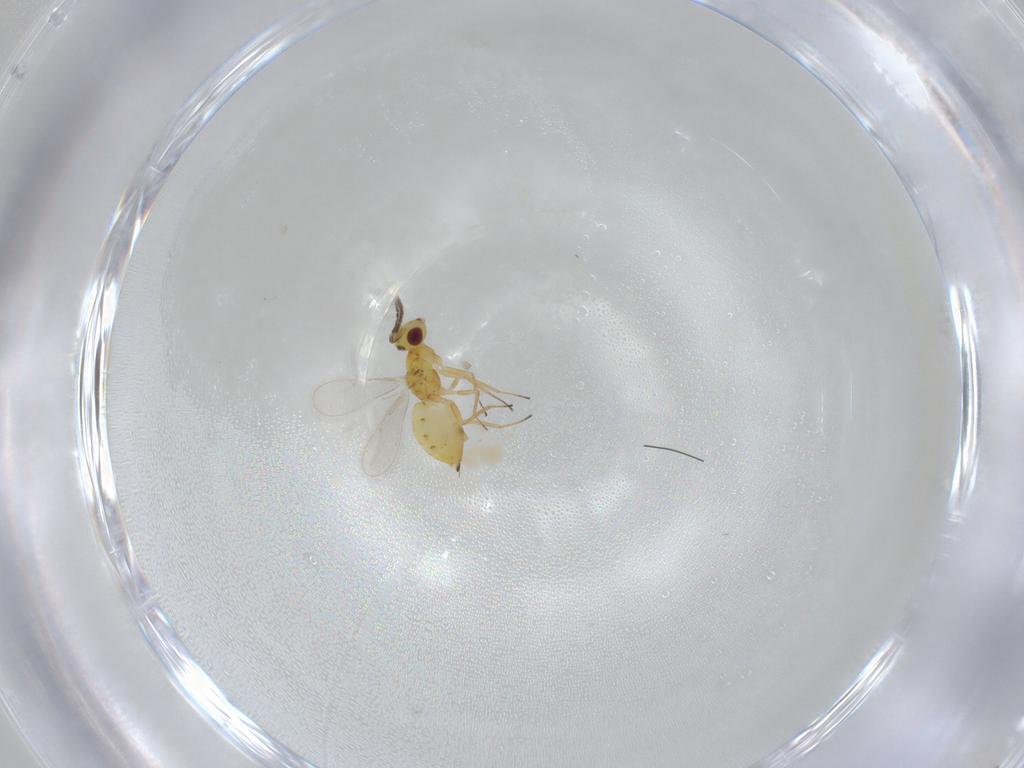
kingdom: Animalia
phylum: Arthropoda
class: Insecta
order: Hymenoptera
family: Eulophidae
